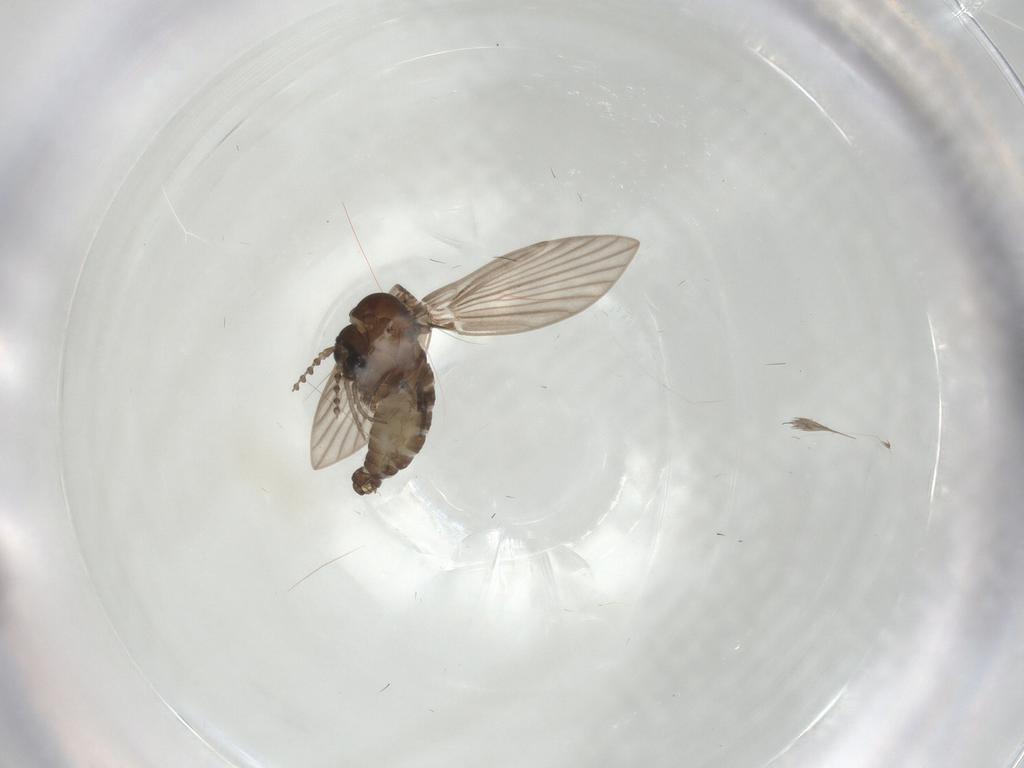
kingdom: Animalia
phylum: Arthropoda
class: Insecta
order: Diptera
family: Psychodidae
